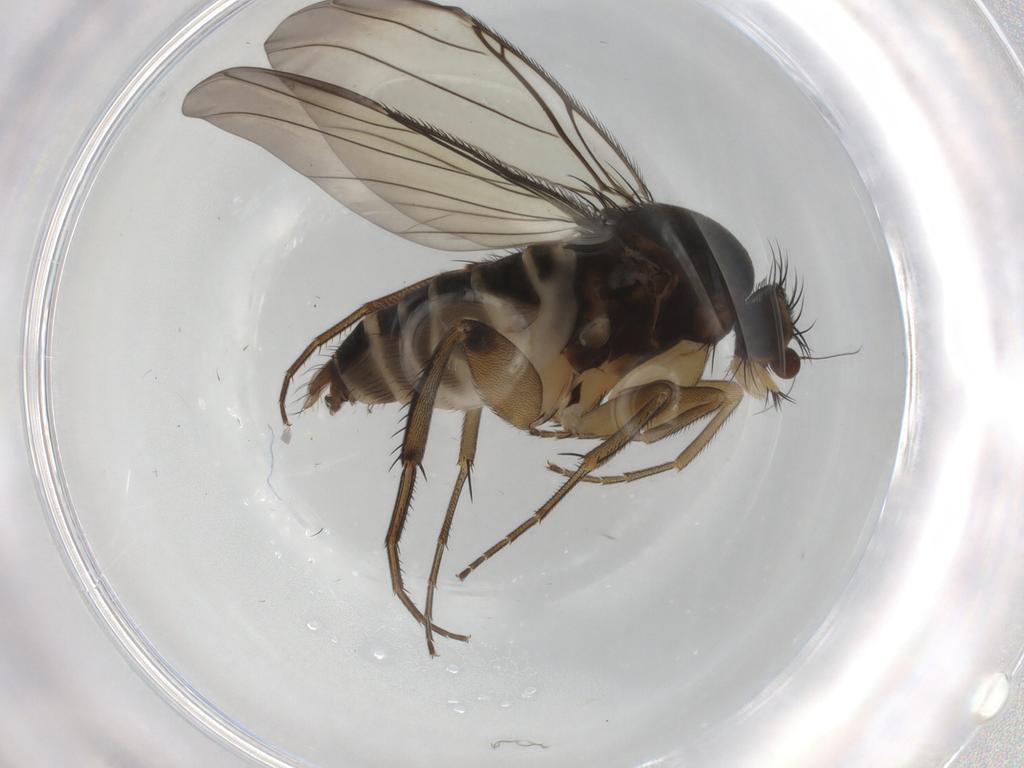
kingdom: Animalia
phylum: Arthropoda
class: Insecta
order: Diptera
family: Phoridae
